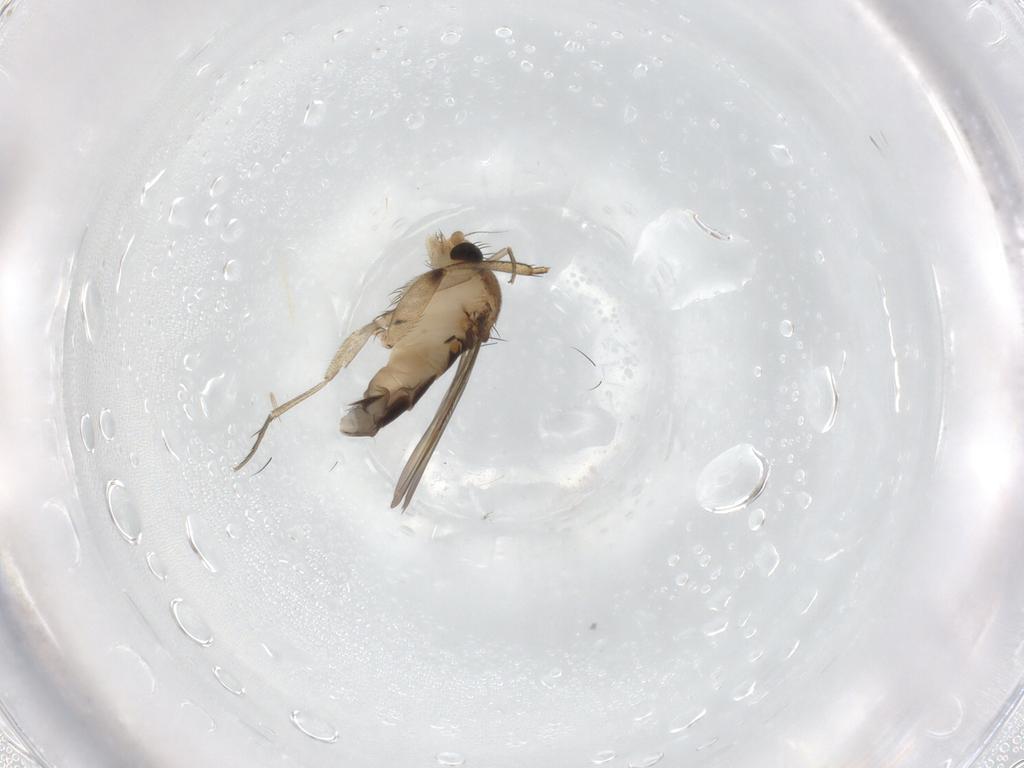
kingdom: Animalia
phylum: Arthropoda
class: Insecta
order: Diptera
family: Phoridae
